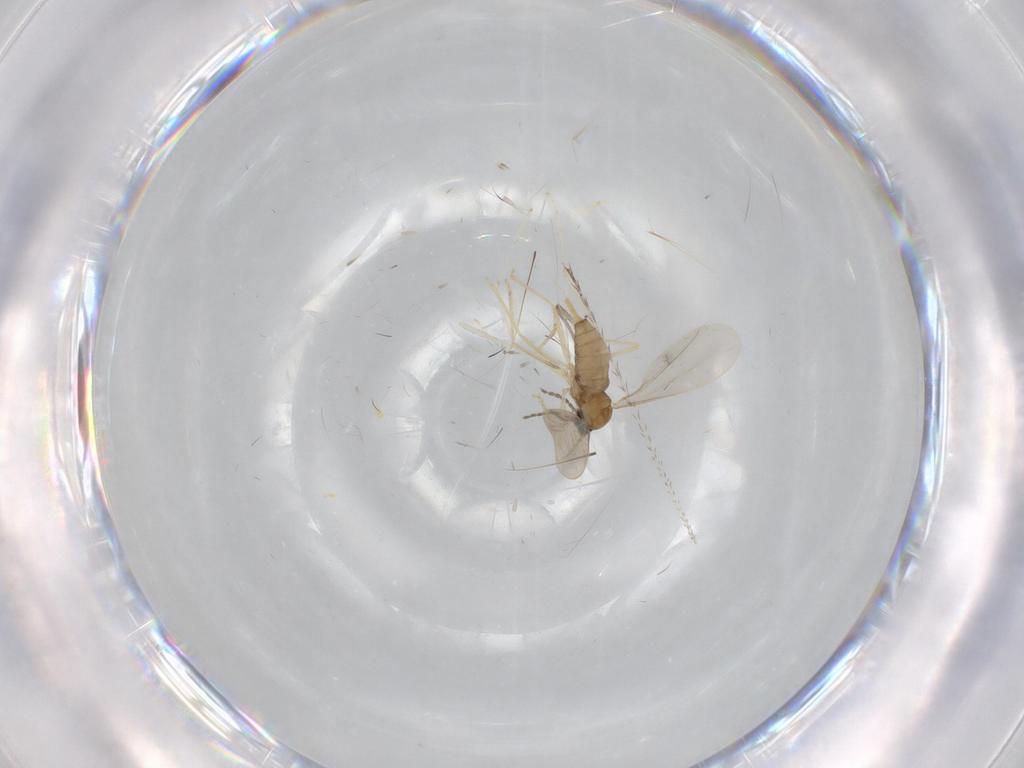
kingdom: Animalia
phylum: Arthropoda
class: Insecta
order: Diptera
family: Cecidomyiidae
